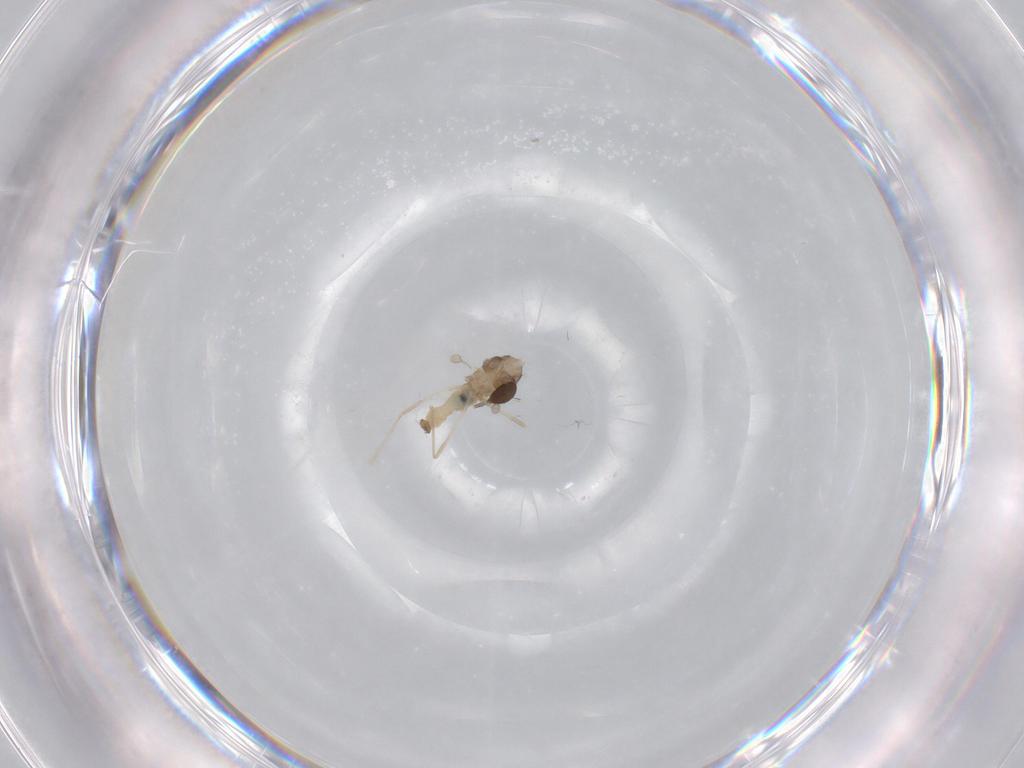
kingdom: Animalia
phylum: Arthropoda
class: Insecta
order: Diptera
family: Cecidomyiidae
